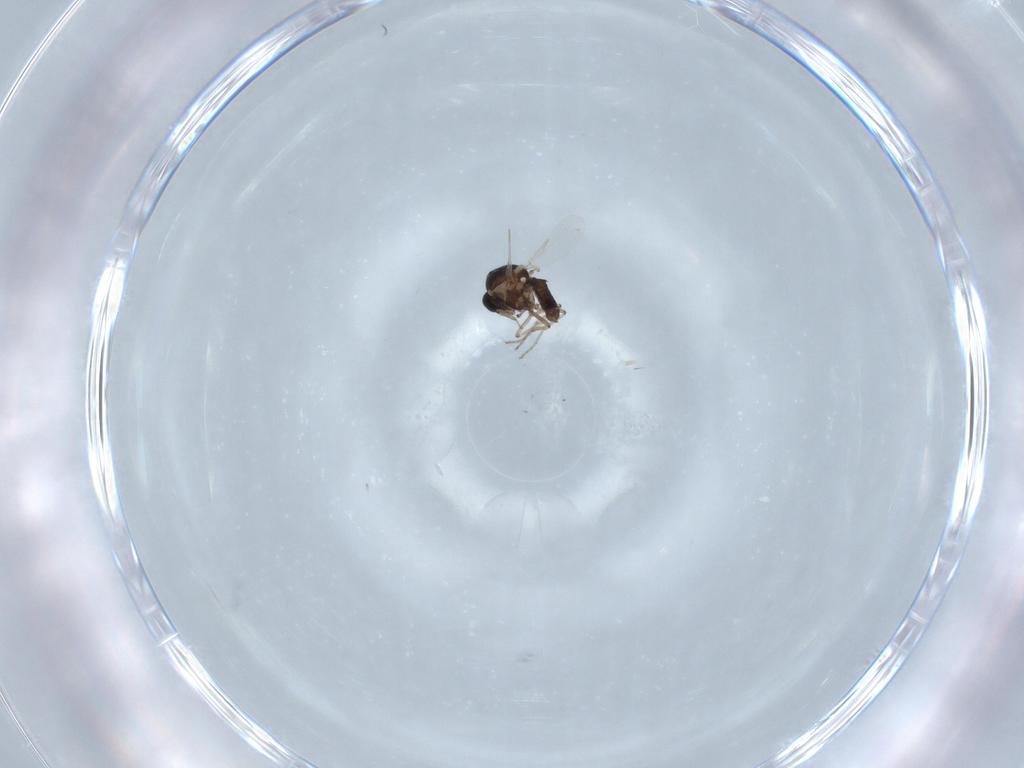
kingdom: Animalia
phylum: Arthropoda
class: Insecta
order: Diptera
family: Ceratopogonidae
